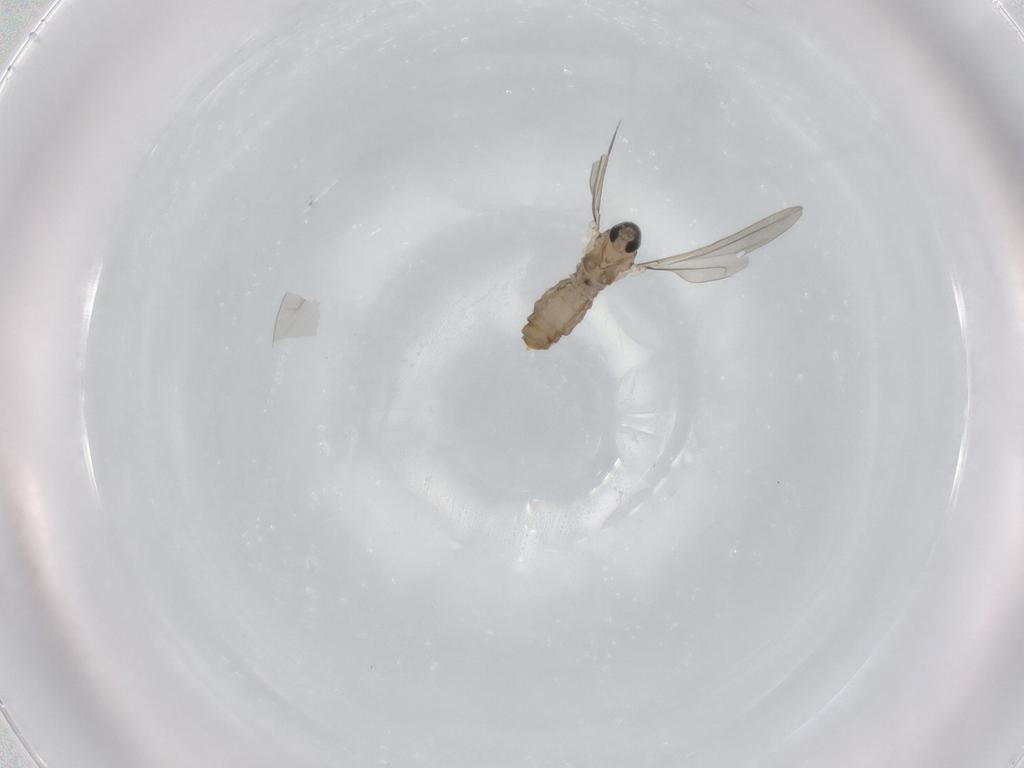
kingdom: Animalia
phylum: Arthropoda
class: Insecta
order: Diptera
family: Cecidomyiidae
